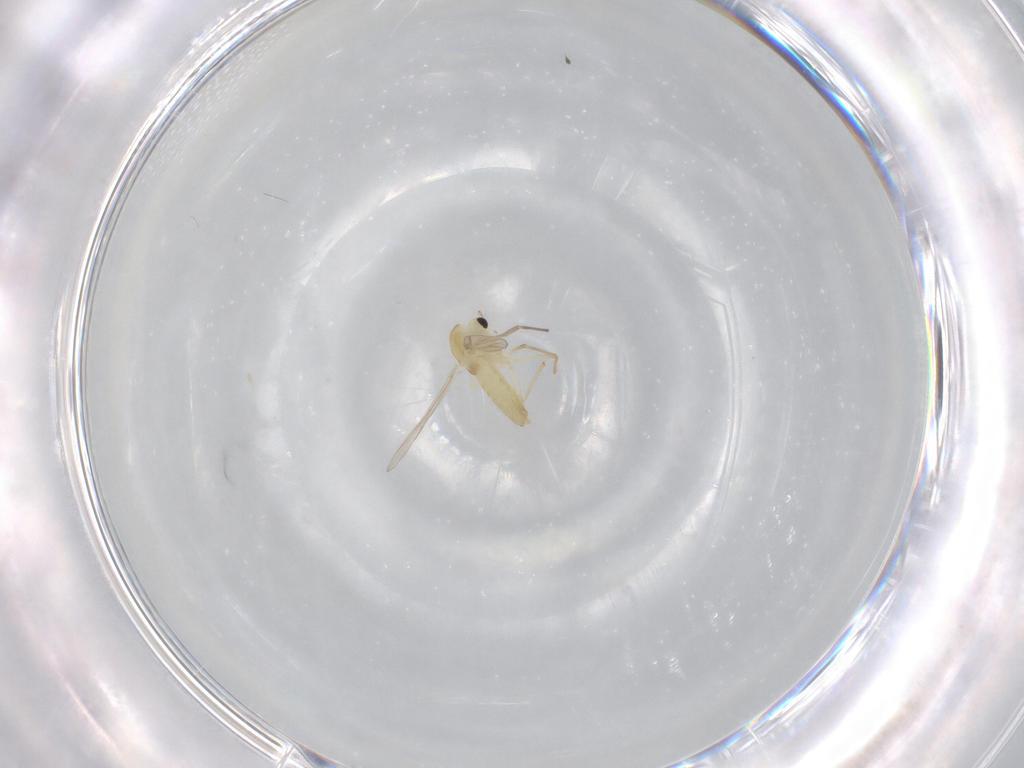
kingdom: Animalia
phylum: Arthropoda
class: Insecta
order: Diptera
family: Chironomidae
